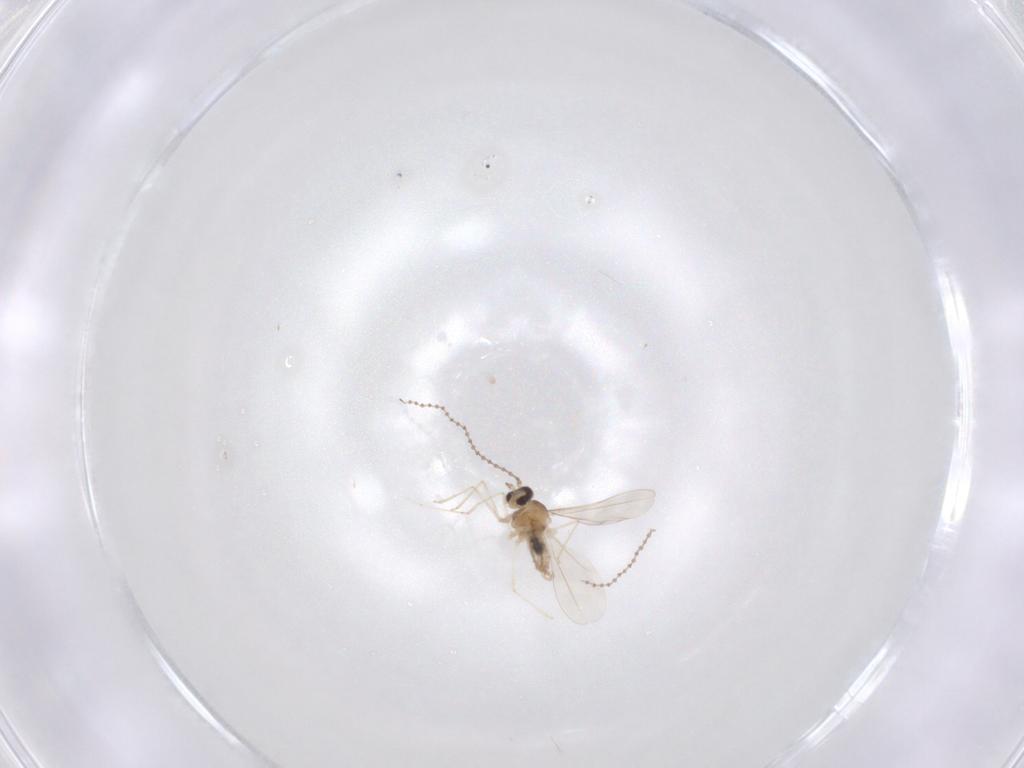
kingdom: Animalia
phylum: Arthropoda
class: Insecta
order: Diptera
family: Cecidomyiidae
